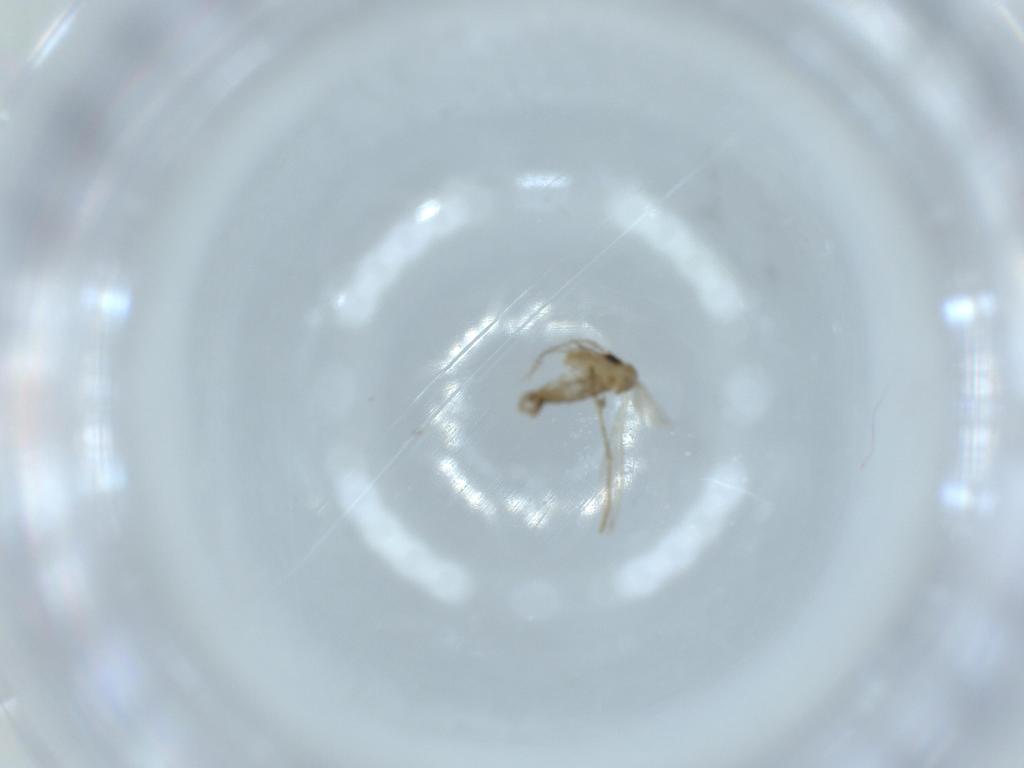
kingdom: Animalia
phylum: Arthropoda
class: Insecta
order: Diptera
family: Psychodidae
